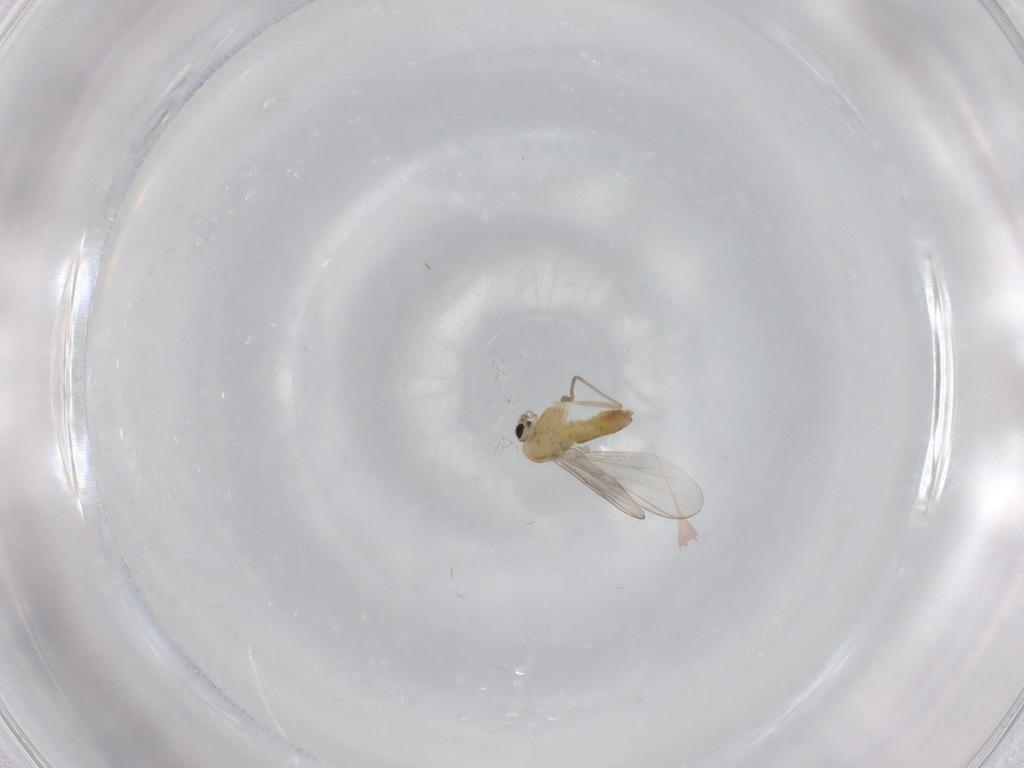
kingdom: Animalia
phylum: Arthropoda
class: Insecta
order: Diptera
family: Chironomidae
